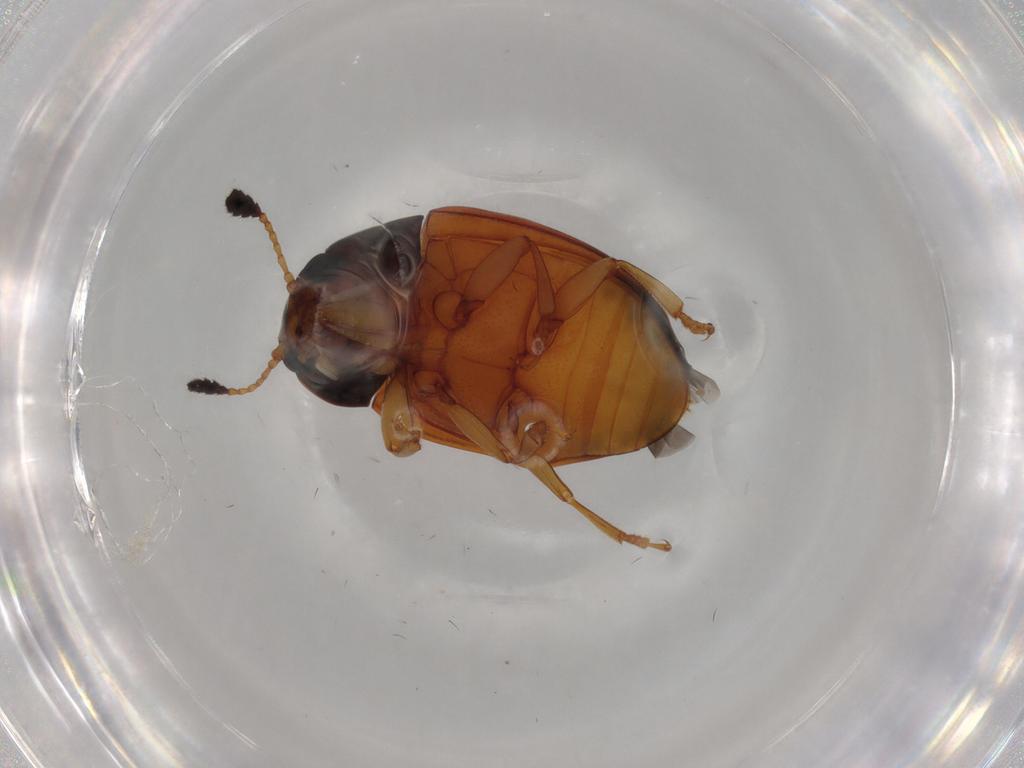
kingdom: Animalia
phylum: Arthropoda
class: Insecta
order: Coleoptera
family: Erotylidae
